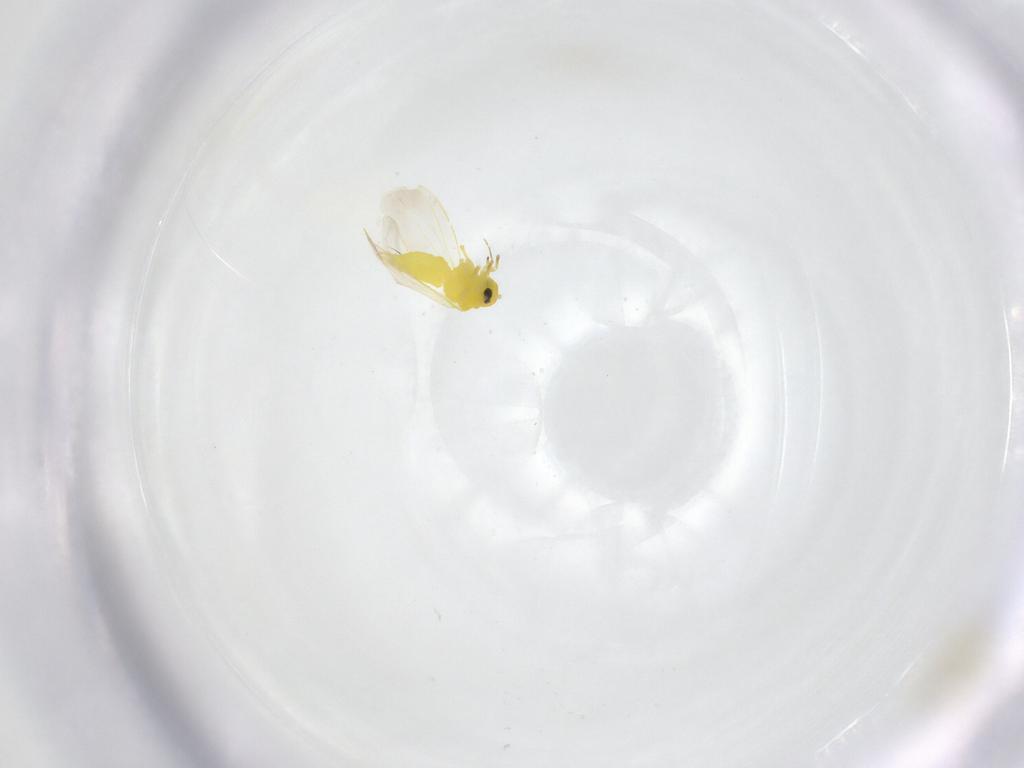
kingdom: Animalia
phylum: Arthropoda
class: Insecta
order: Hemiptera
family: Aleyrodidae
